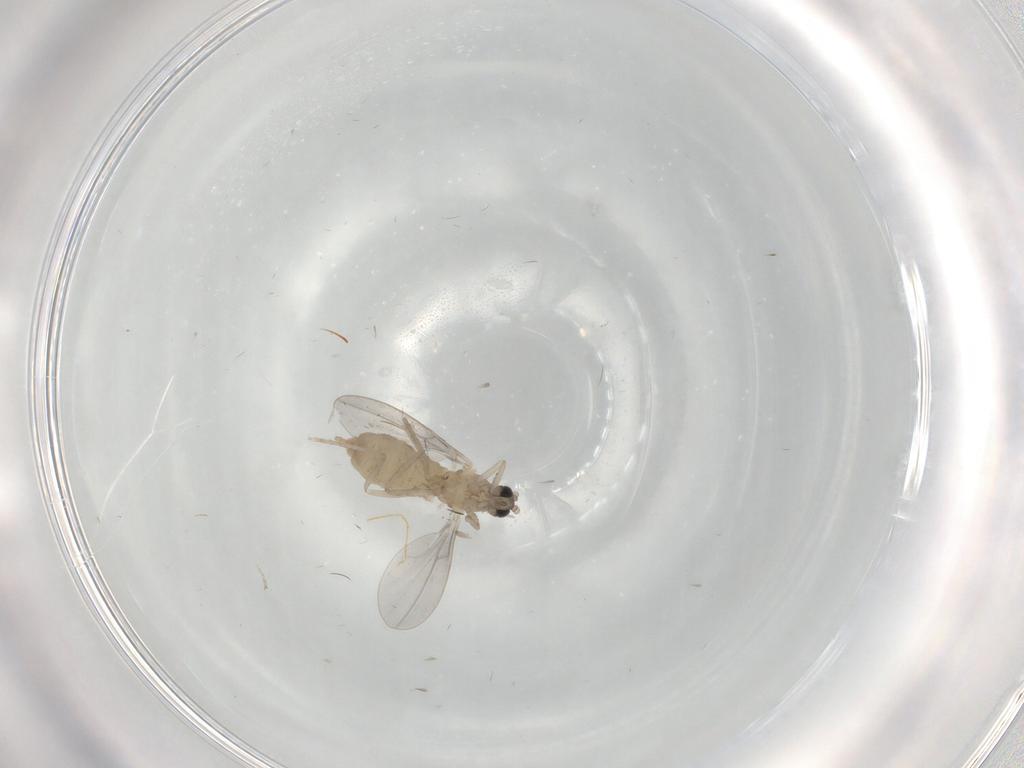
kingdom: Animalia
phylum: Arthropoda
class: Insecta
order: Diptera
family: Cecidomyiidae
